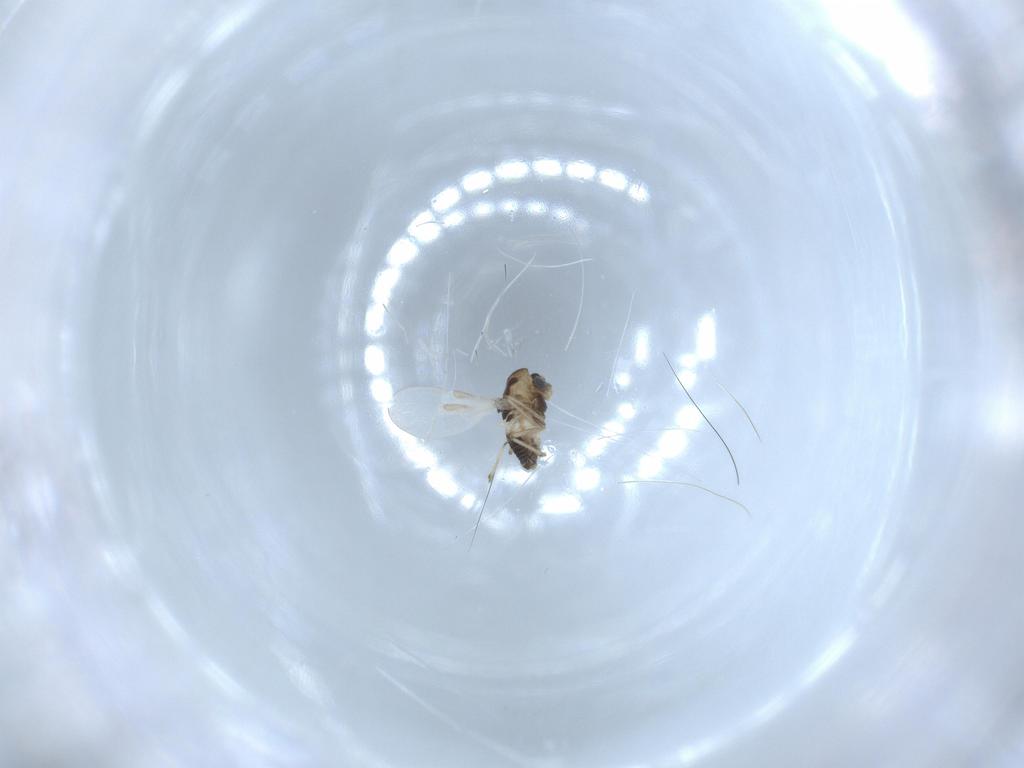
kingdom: Animalia
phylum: Arthropoda
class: Insecta
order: Diptera
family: Chironomidae
